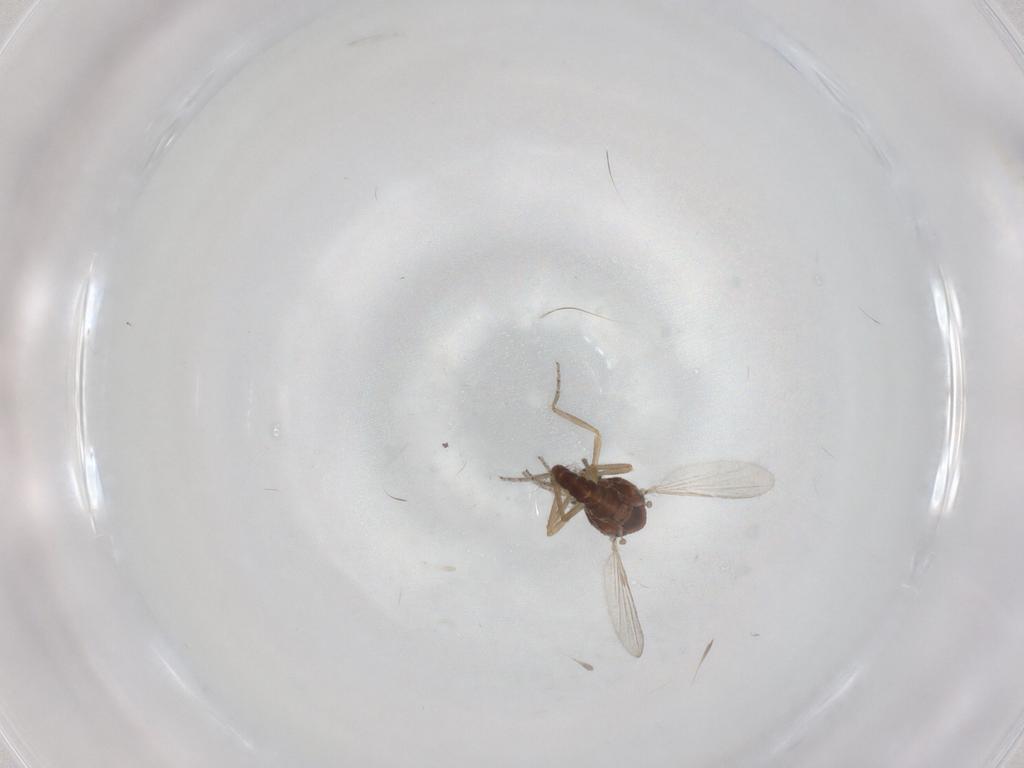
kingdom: Animalia
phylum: Arthropoda
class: Insecta
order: Diptera
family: Ceratopogonidae
